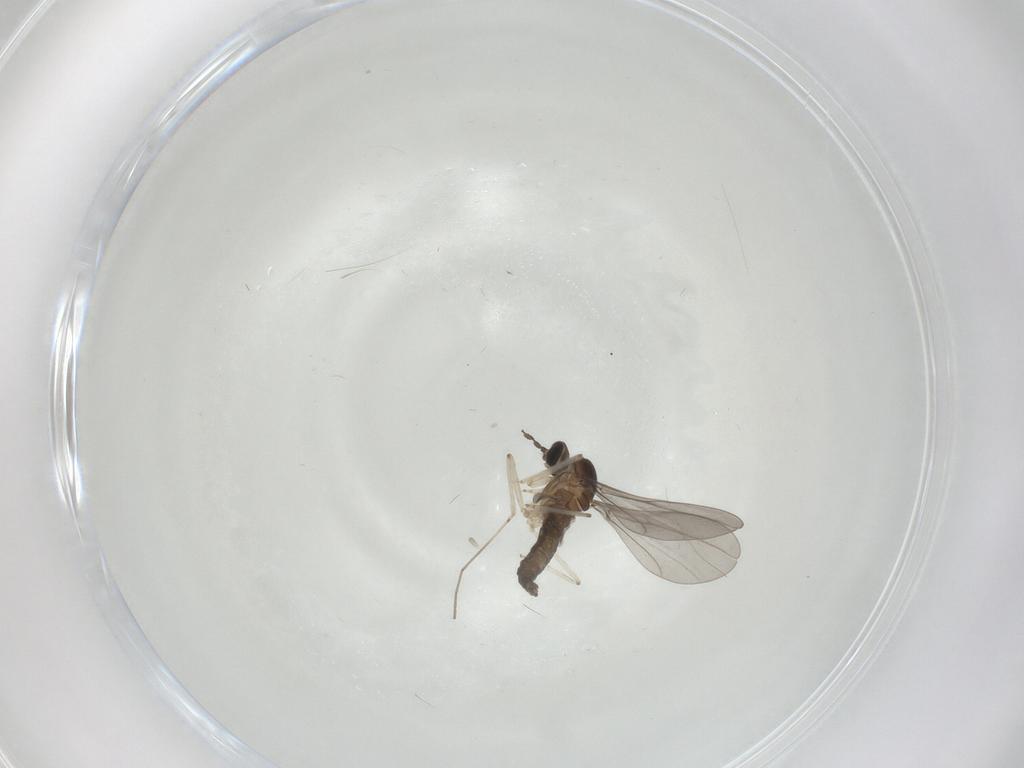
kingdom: Animalia
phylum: Arthropoda
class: Insecta
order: Diptera
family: Cecidomyiidae
